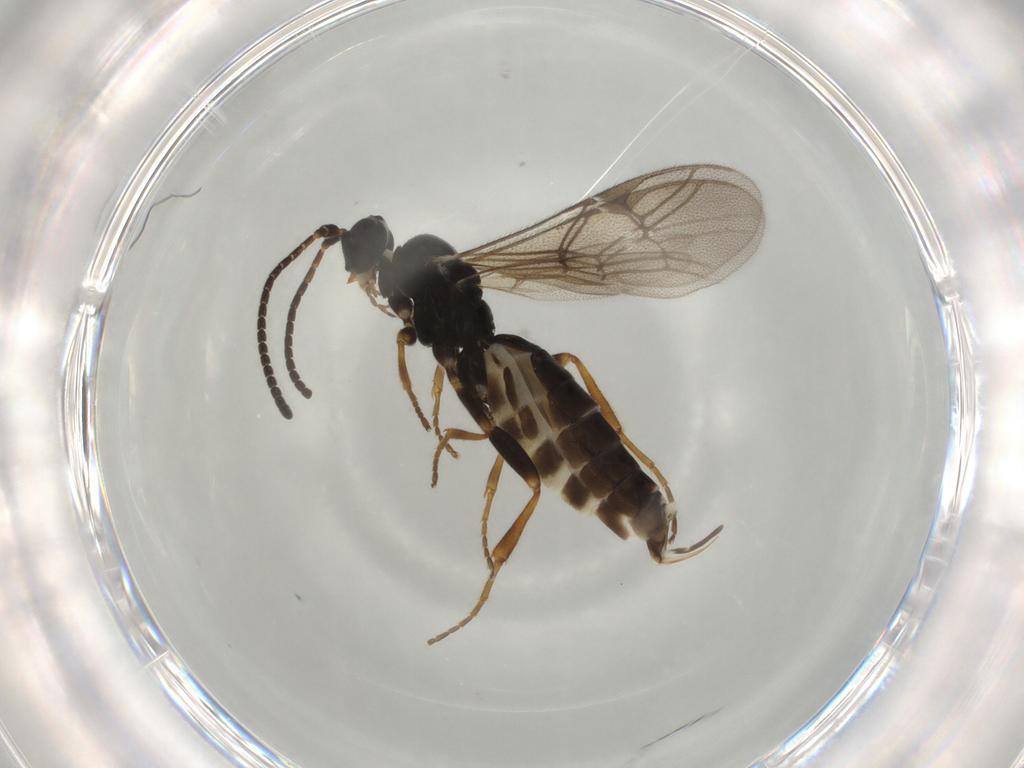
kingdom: Animalia
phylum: Arthropoda
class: Insecta
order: Hymenoptera
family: Ichneumonidae
